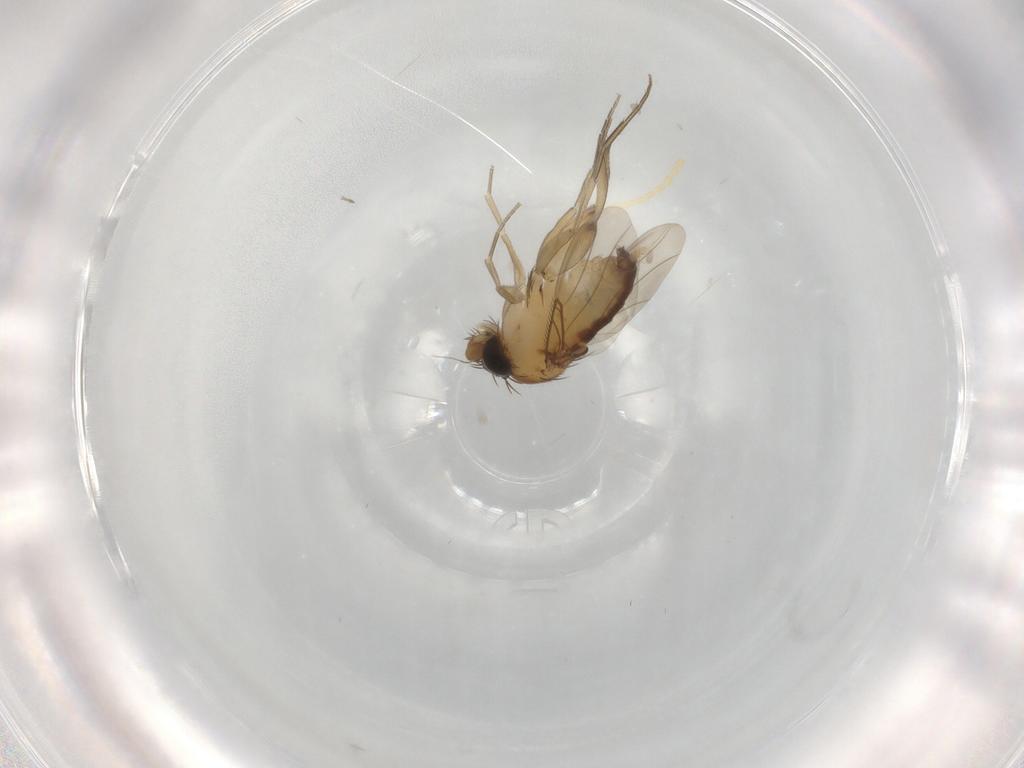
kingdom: Animalia
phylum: Arthropoda
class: Insecta
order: Diptera
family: Phoridae
